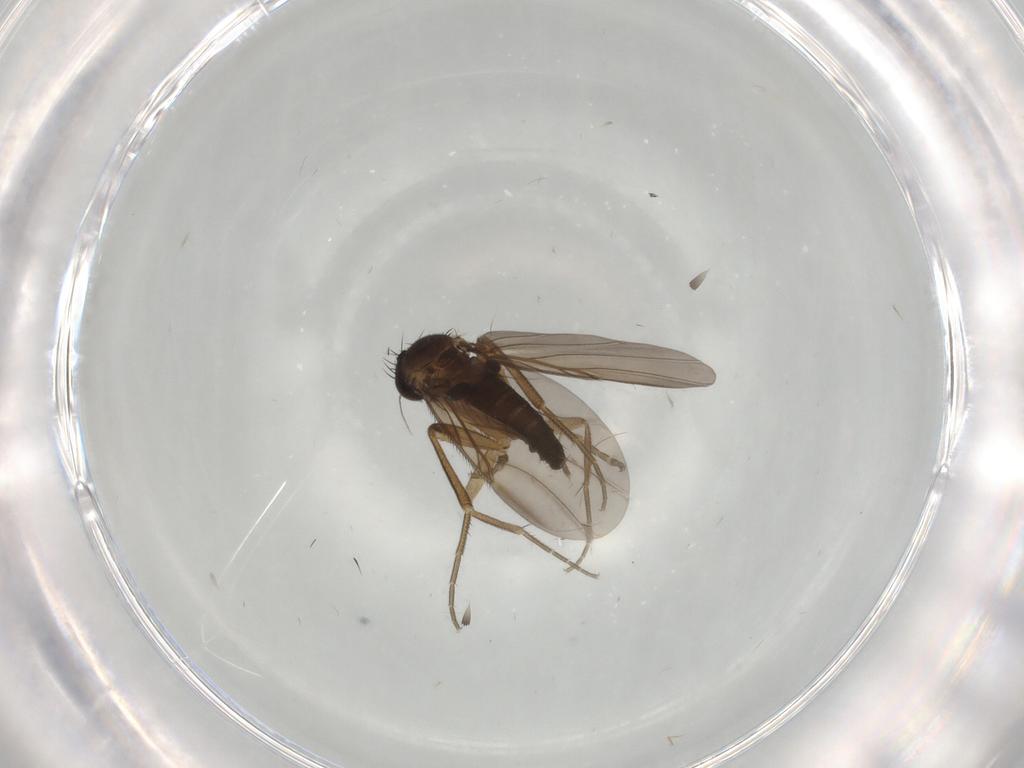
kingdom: Animalia
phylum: Arthropoda
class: Insecta
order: Diptera
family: Phoridae
